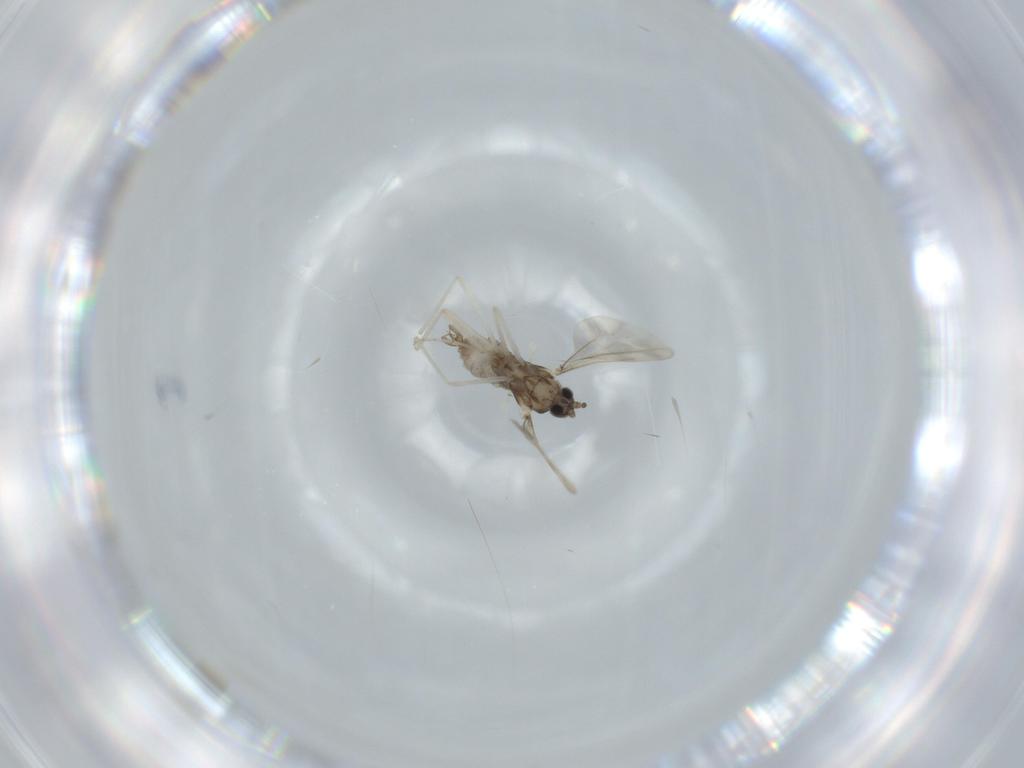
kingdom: Animalia
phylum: Arthropoda
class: Insecta
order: Diptera
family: Cecidomyiidae
